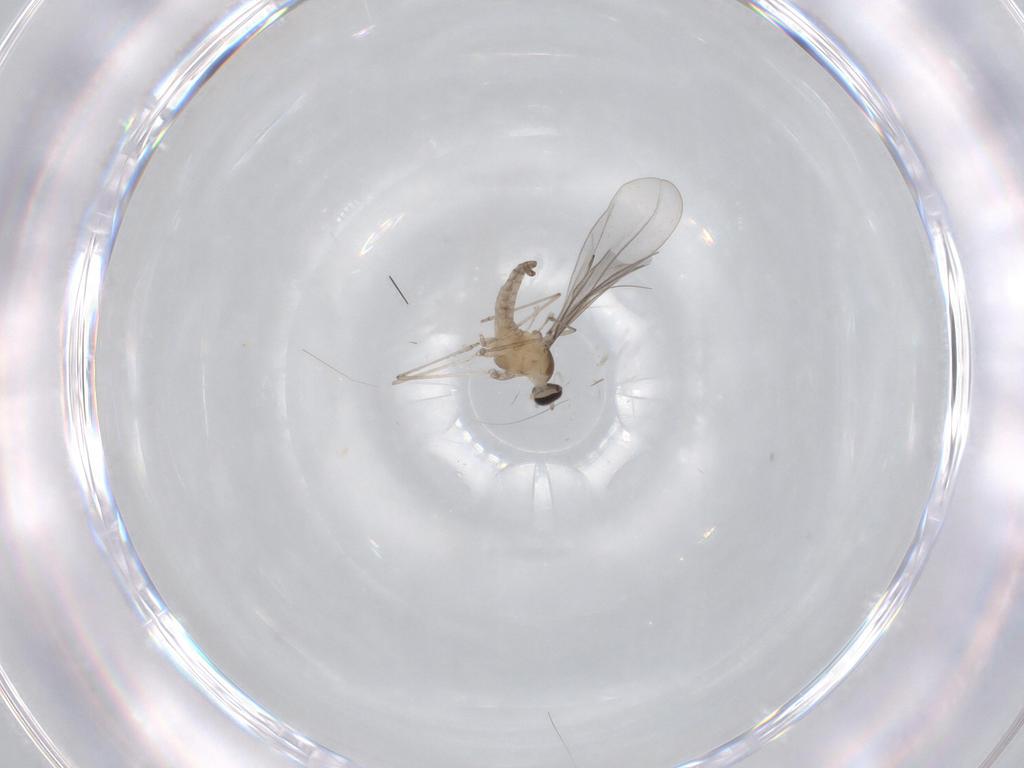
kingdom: Animalia
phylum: Arthropoda
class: Insecta
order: Diptera
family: Cecidomyiidae
